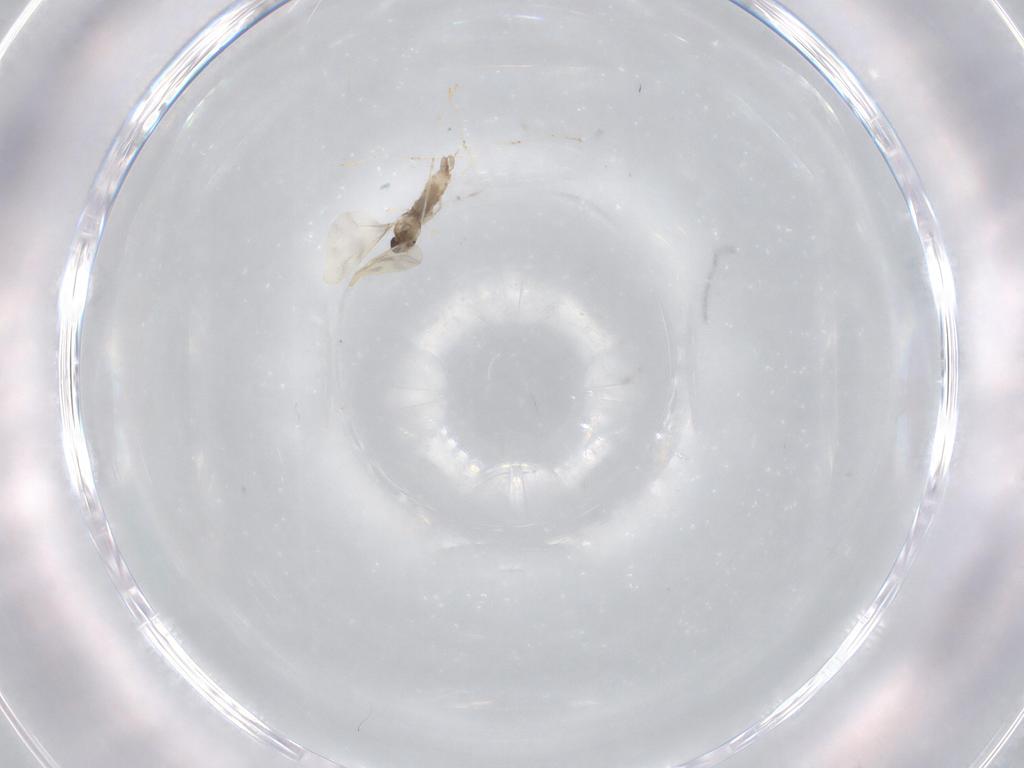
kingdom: Animalia
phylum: Arthropoda
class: Insecta
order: Diptera
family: Cecidomyiidae
